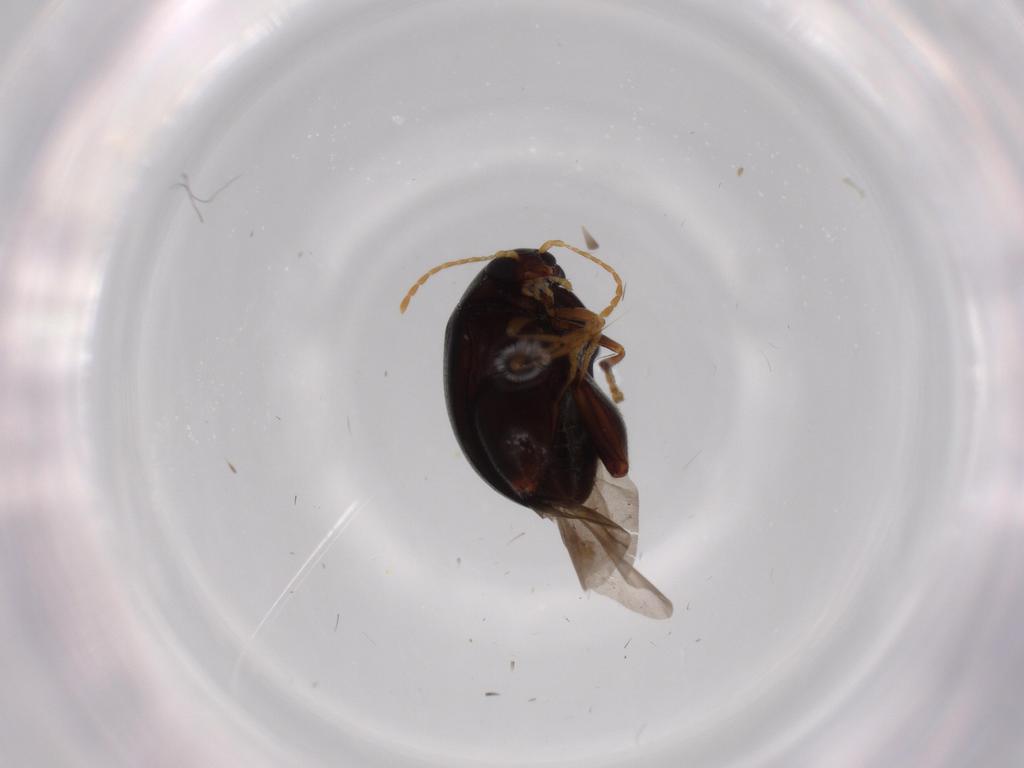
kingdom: Animalia
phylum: Arthropoda
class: Insecta
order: Coleoptera
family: Chrysomelidae
